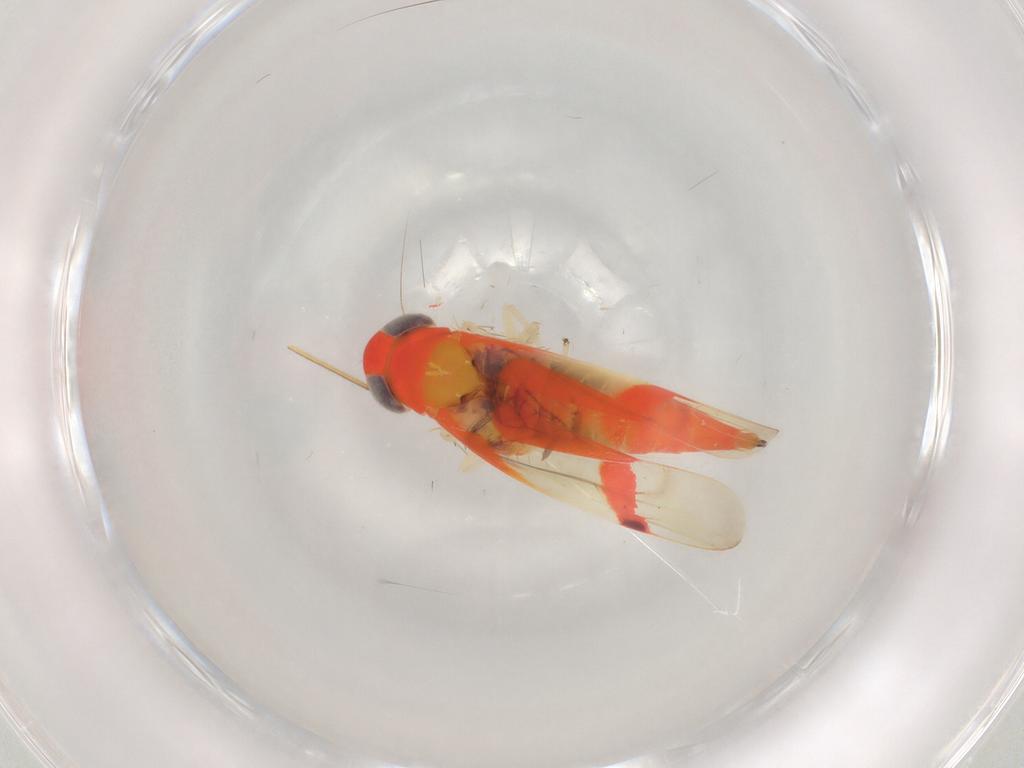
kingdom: Animalia
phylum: Arthropoda
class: Insecta
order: Hemiptera
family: Cicadellidae
